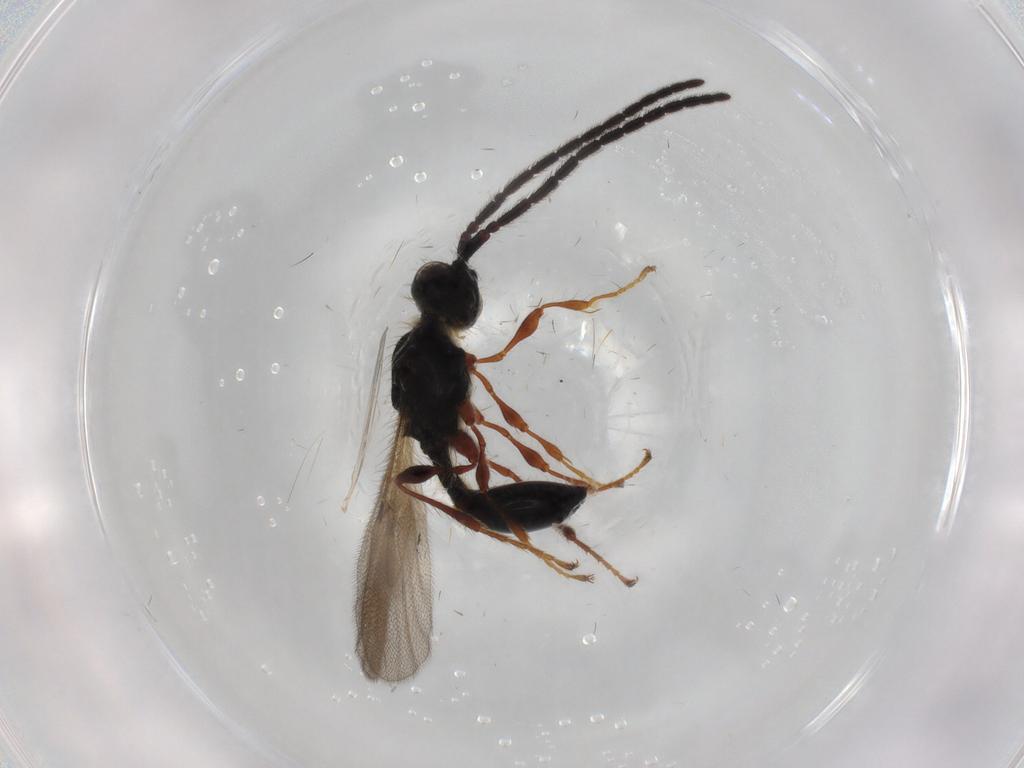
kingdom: Animalia
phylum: Arthropoda
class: Insecta
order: Hymenoptera
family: Diapriidae
